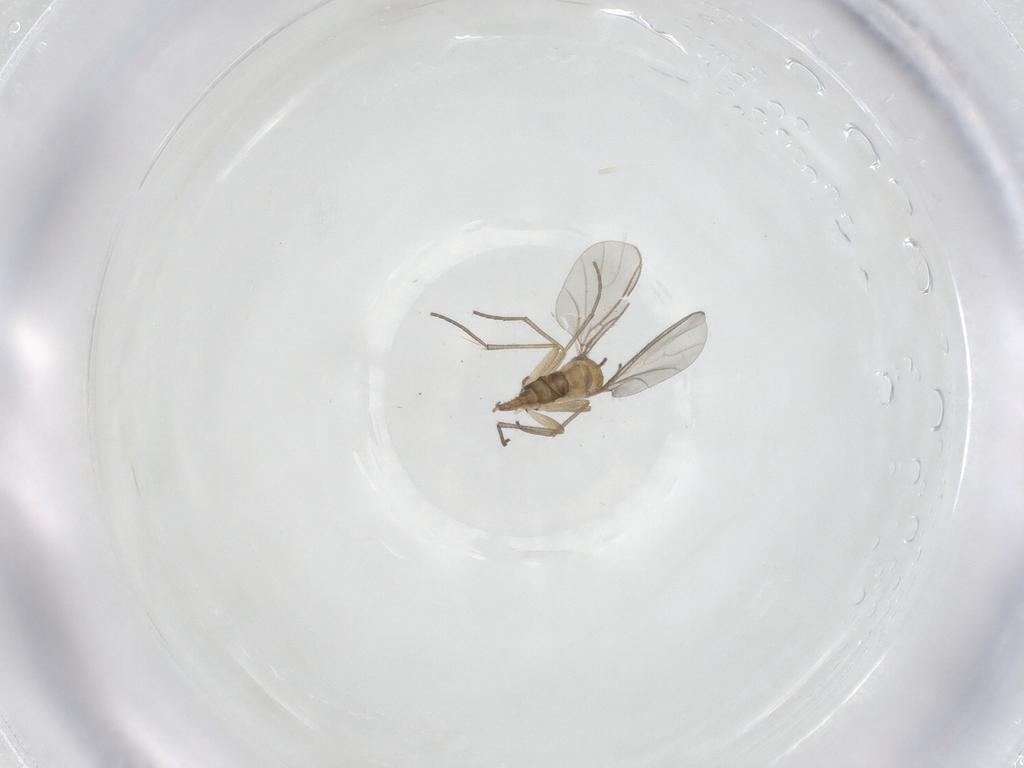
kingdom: Animalia
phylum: Arthropoda
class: Insecta
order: Diptera
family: Sciaridae
